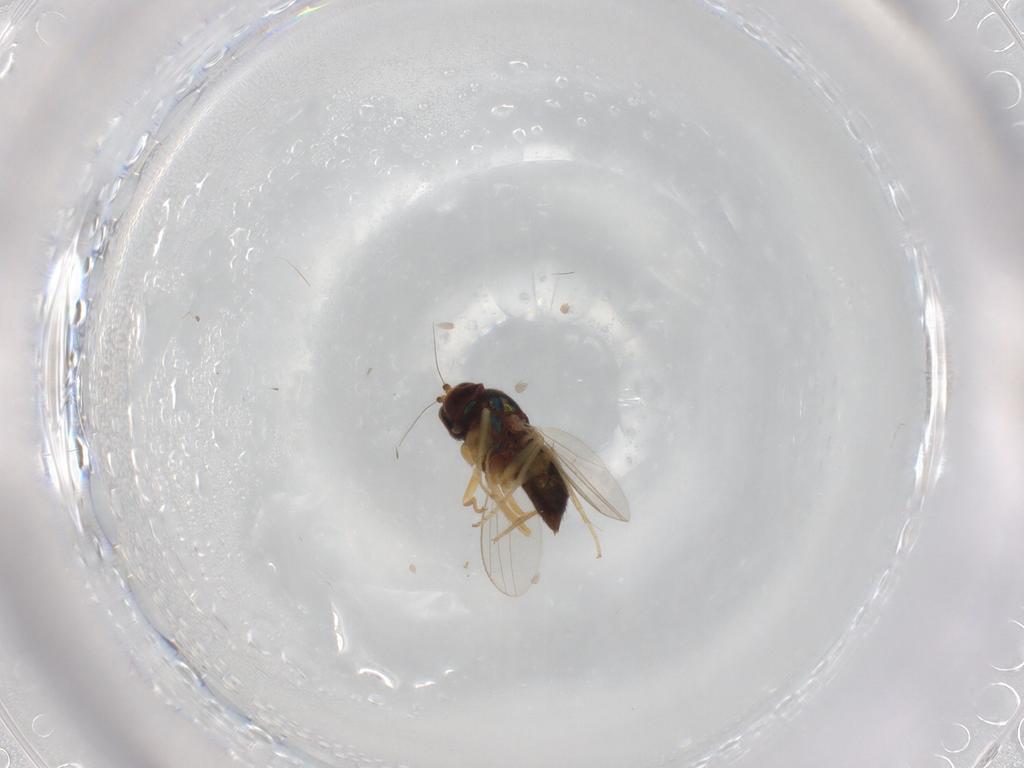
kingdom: Animalia
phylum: Arthropoda
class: Insecta
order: Diptera
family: Dolichopodidae
